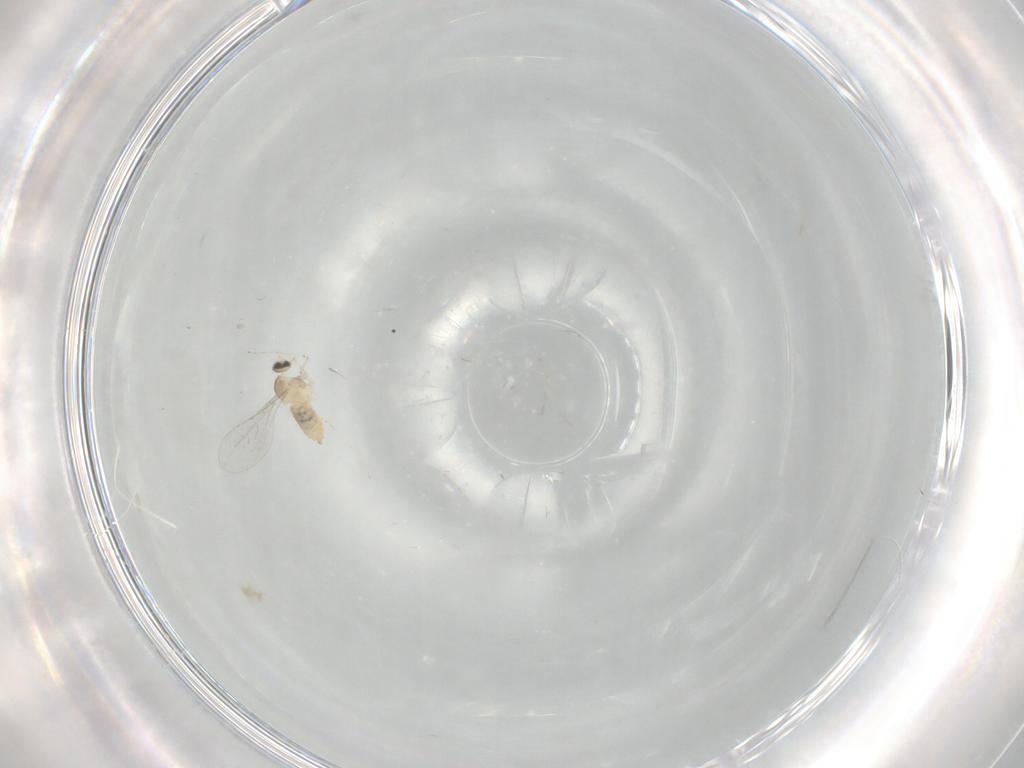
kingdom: Animalia
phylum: Arthropoda
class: Insecta
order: Diptera
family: Cecidomyiidae
